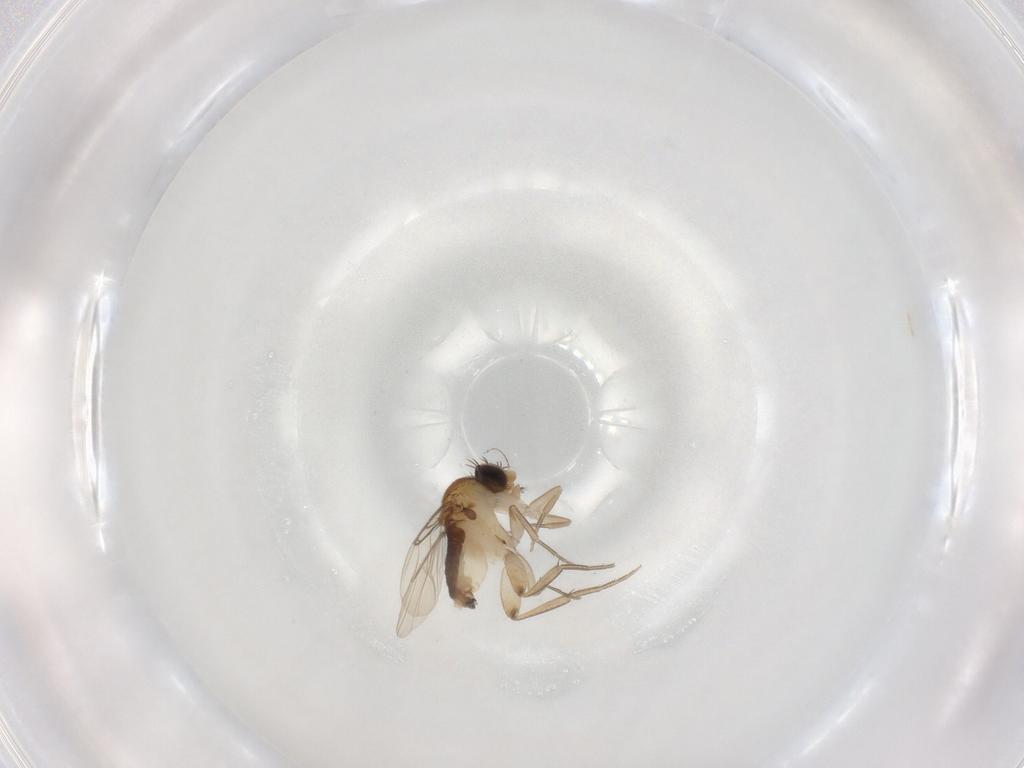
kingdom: Animalia
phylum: Arthropoda
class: Insecta
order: Diptera
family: Phoridae
